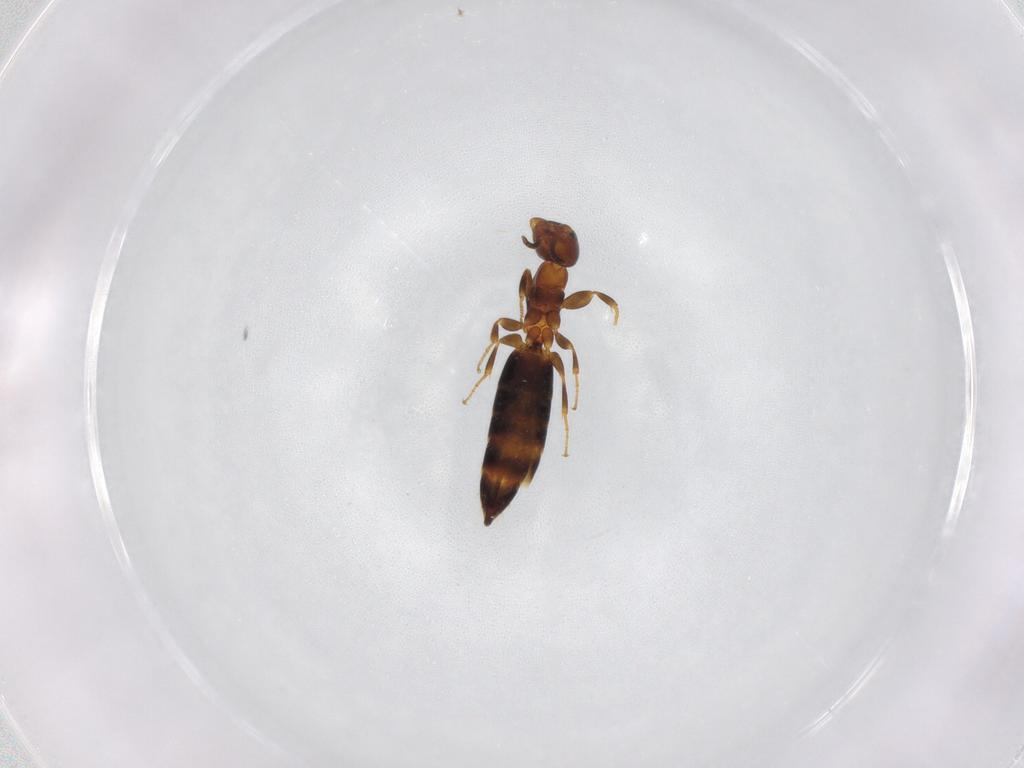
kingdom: Animalia
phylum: Arthropoda
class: Insecta
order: Hymenoptera
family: Bethylidae
